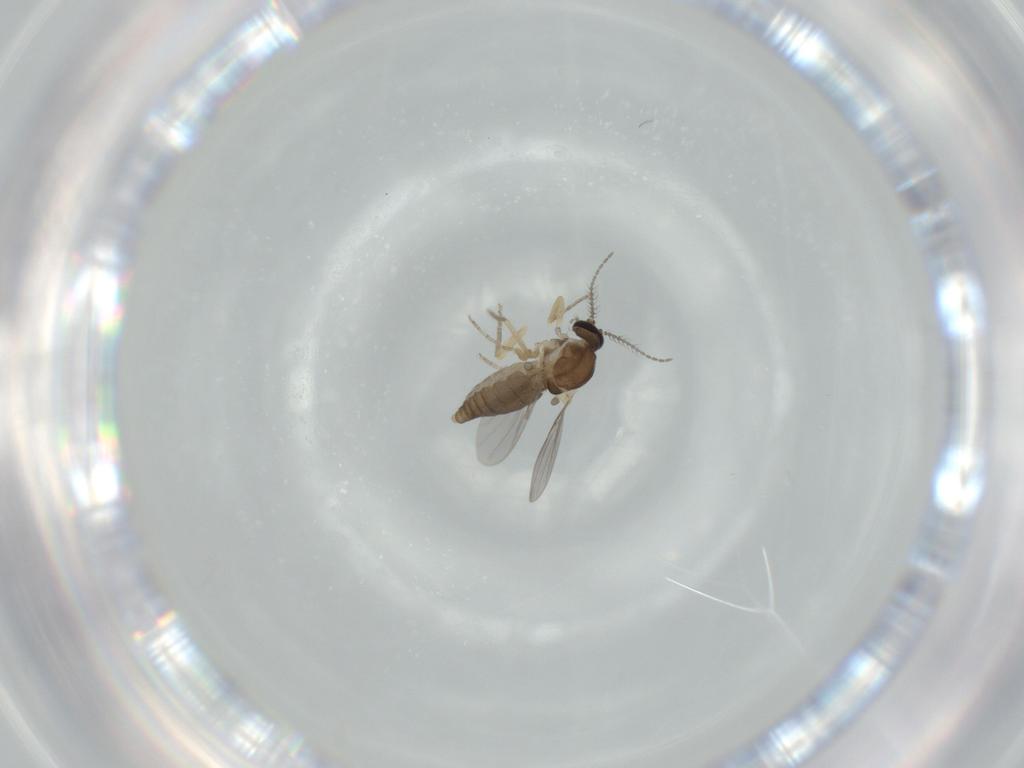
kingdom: Animalia
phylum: Arthropoda
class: Insecta
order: Diptera
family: Ceratopogonidae
